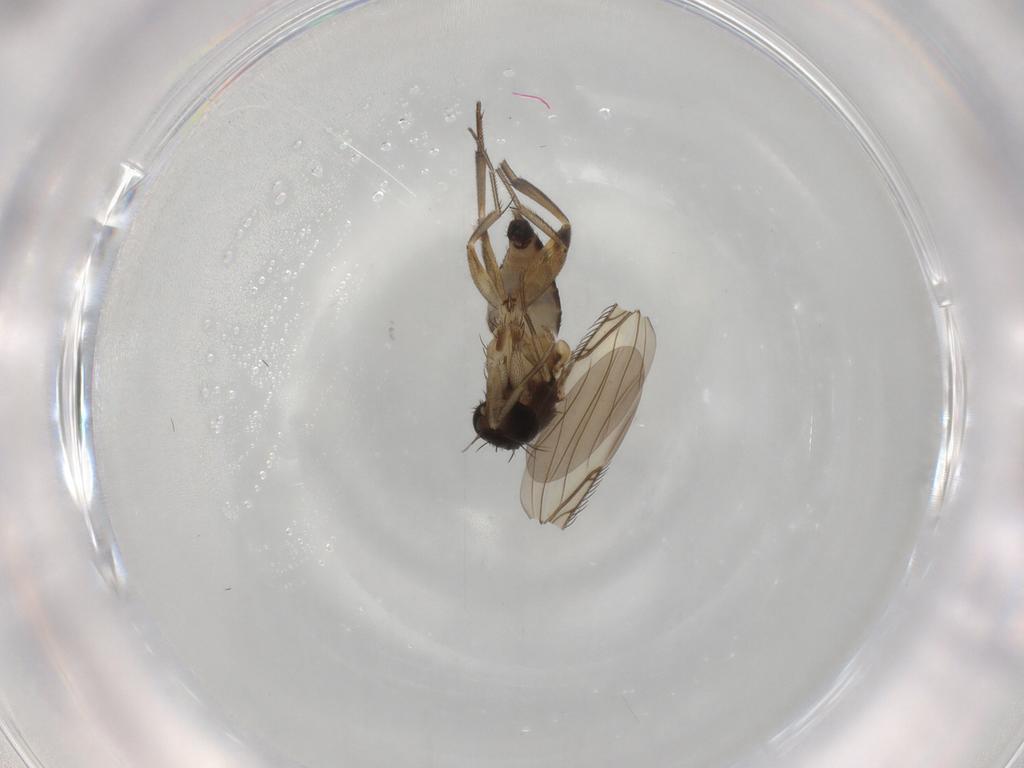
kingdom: Animalia
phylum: Arthropoda
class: Insecta
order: Diptera
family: Phoridae
